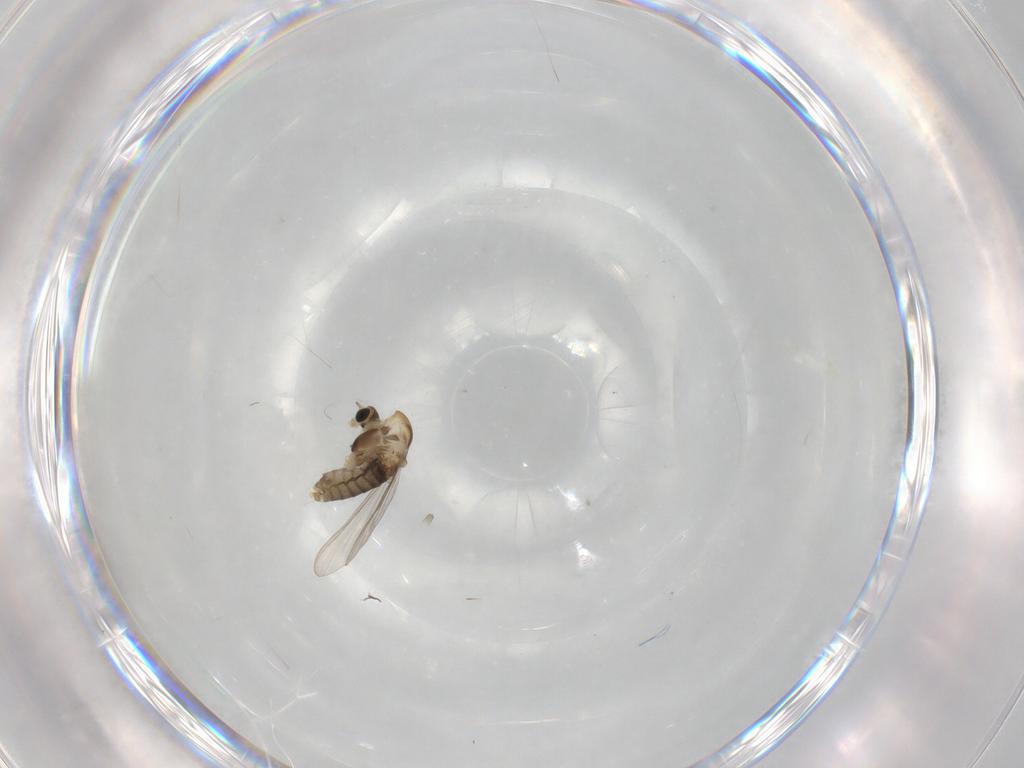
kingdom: Animalia
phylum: Arthropoda
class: Insecta
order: Diptera
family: Chironomidae
